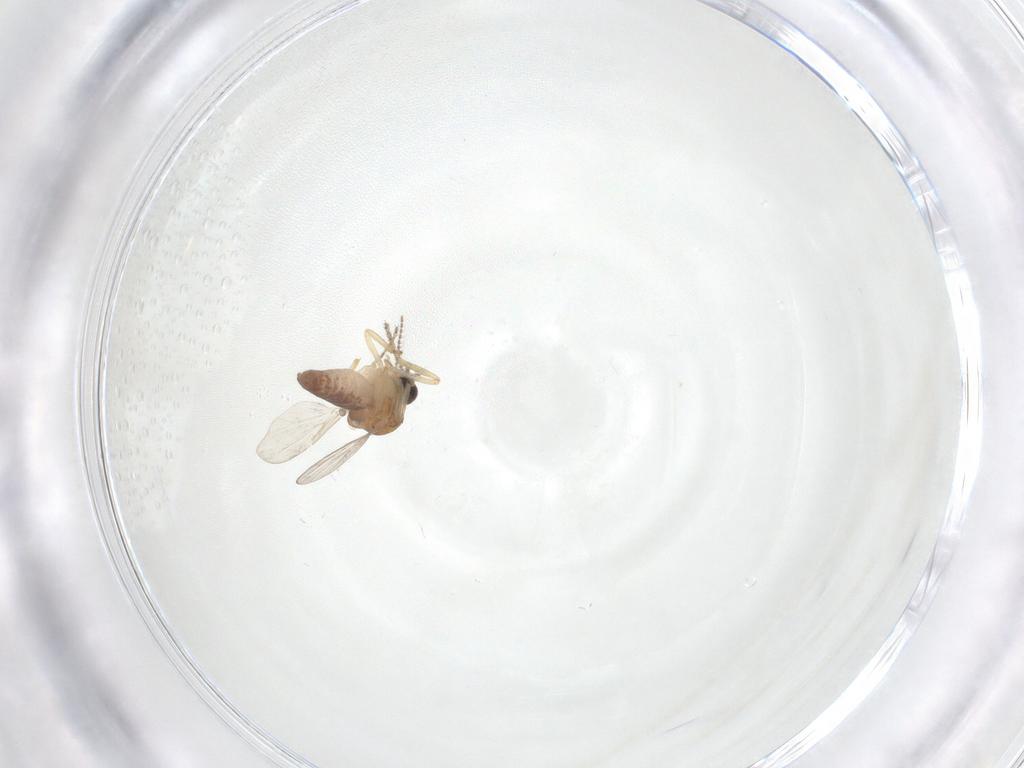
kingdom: Animalia
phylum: Arthropoda
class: Insecta
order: Diptera
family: Ceratopogonidae
